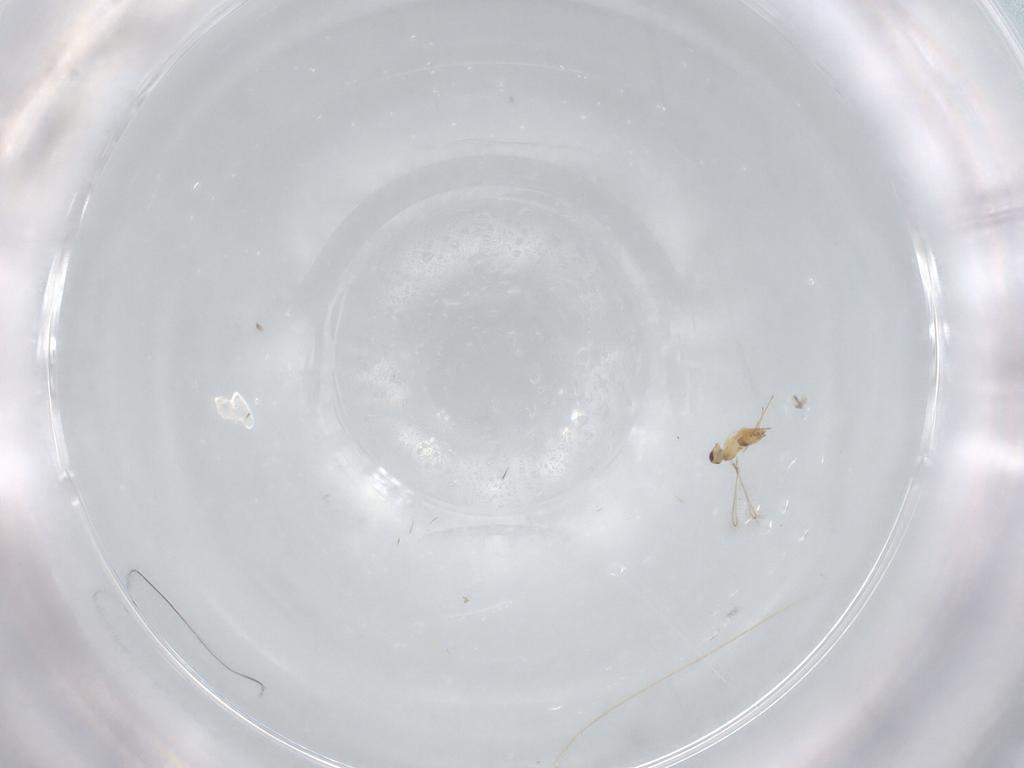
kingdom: Animalia
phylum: Arthropoda
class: Insecta
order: Hymenoptera
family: Mymaridae
